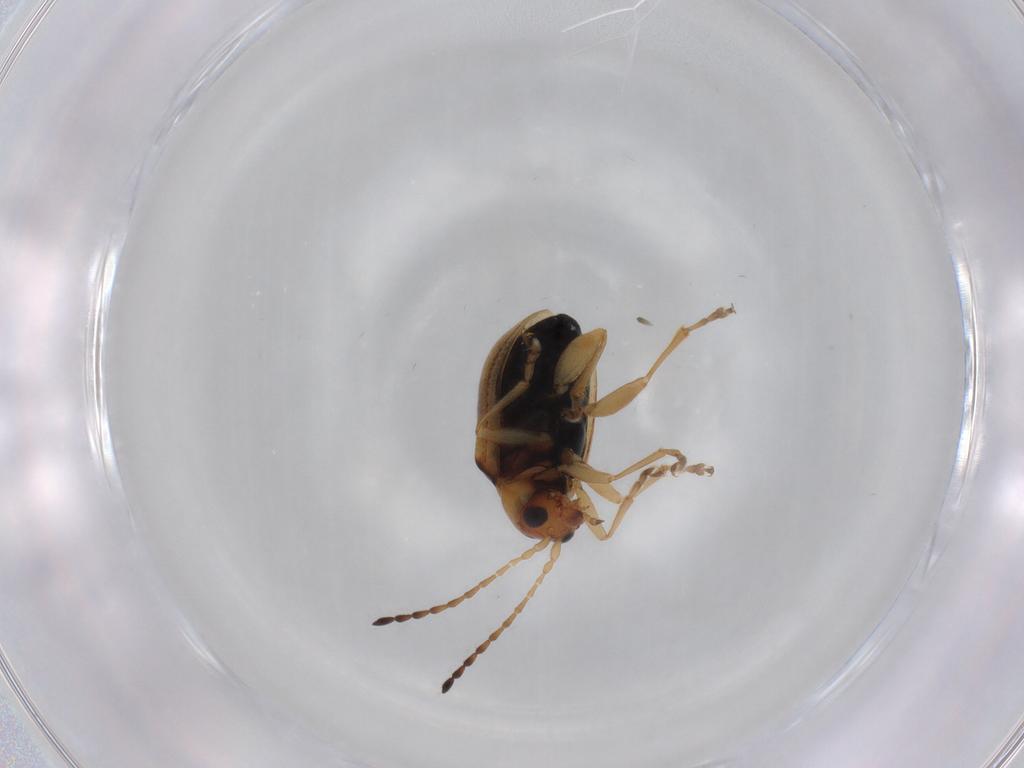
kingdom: Animalia
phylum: Arthropoda
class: Insecta
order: Coleoptera
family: Chrysomelidae
